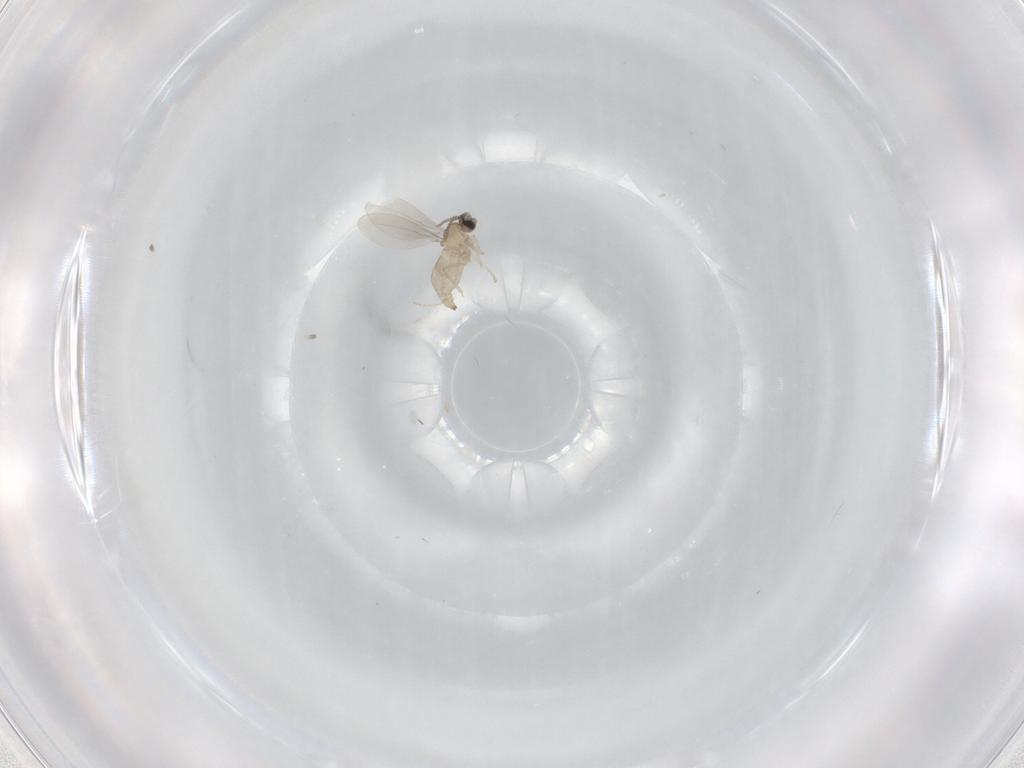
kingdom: Animalia
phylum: Arthropoda
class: Insecta
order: Diptera
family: Cecidomyiidae
